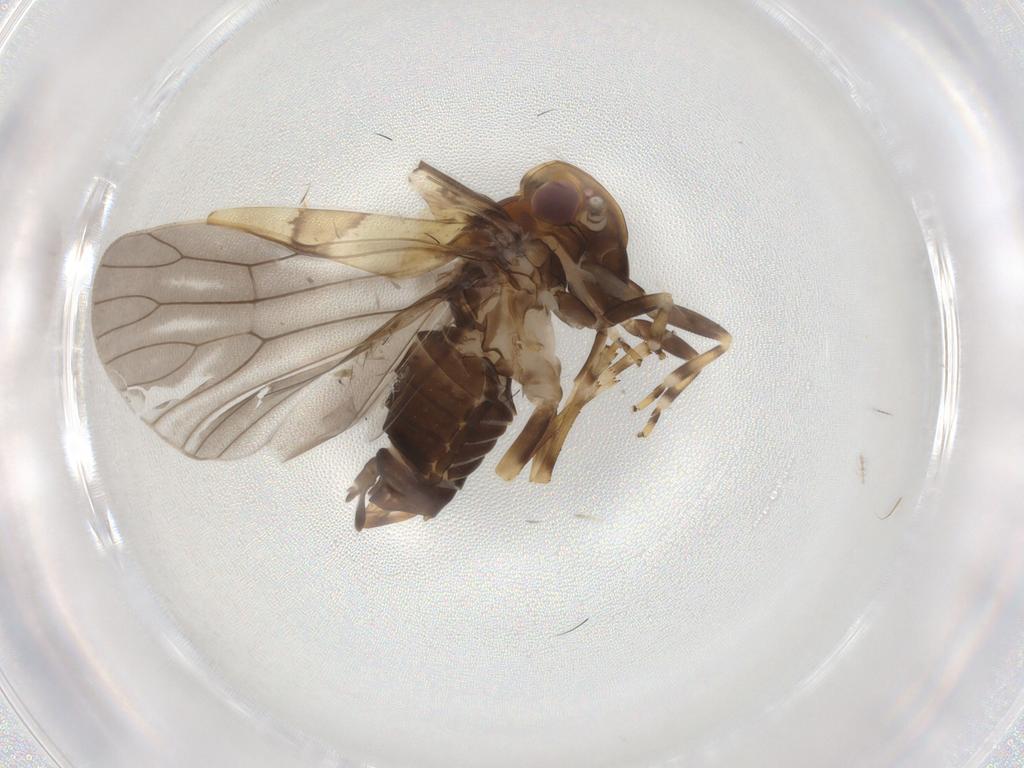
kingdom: Animalia
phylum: Arthropoda
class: Insecta
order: Hemiptera
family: Cixiidae
